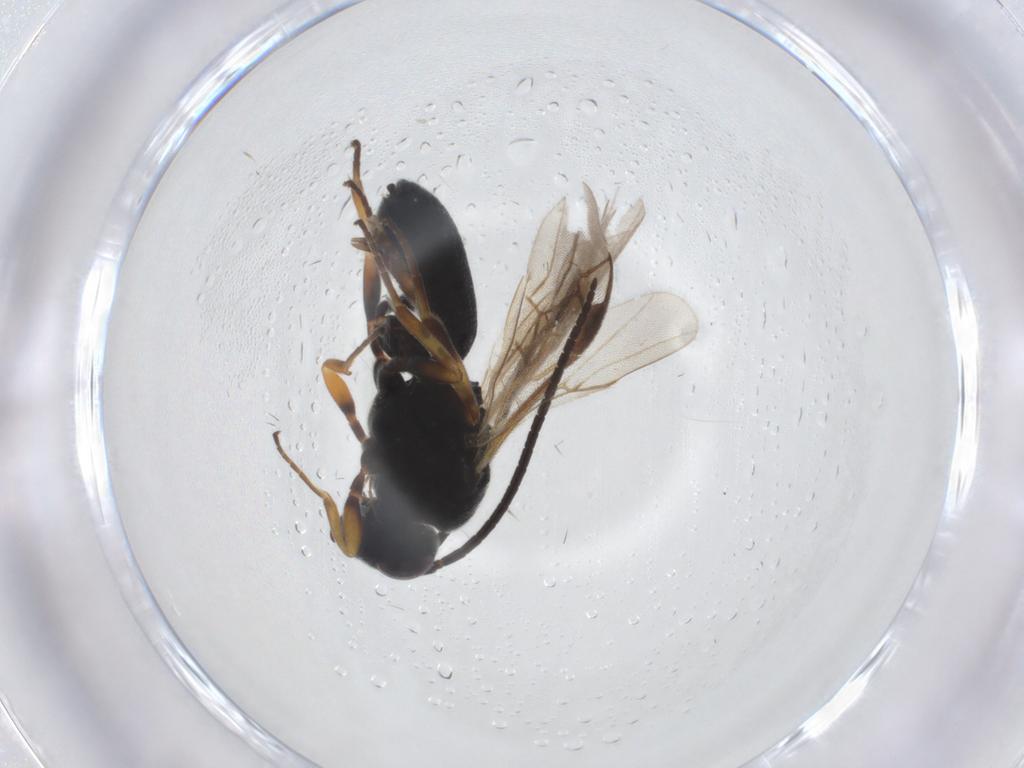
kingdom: Animalia
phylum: Arthropoda
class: Insecta
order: Hymenoptera
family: Braconidae
